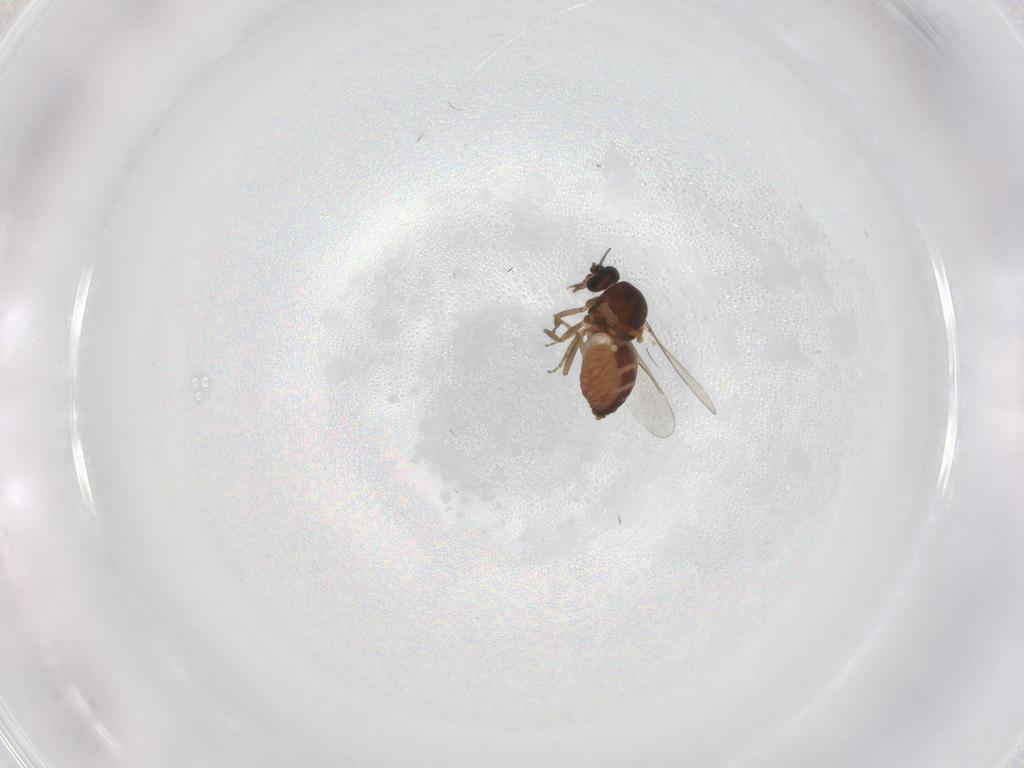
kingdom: Animalia
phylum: Arthropoda
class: Insecta
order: Diptera
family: Ceratopogonidae
